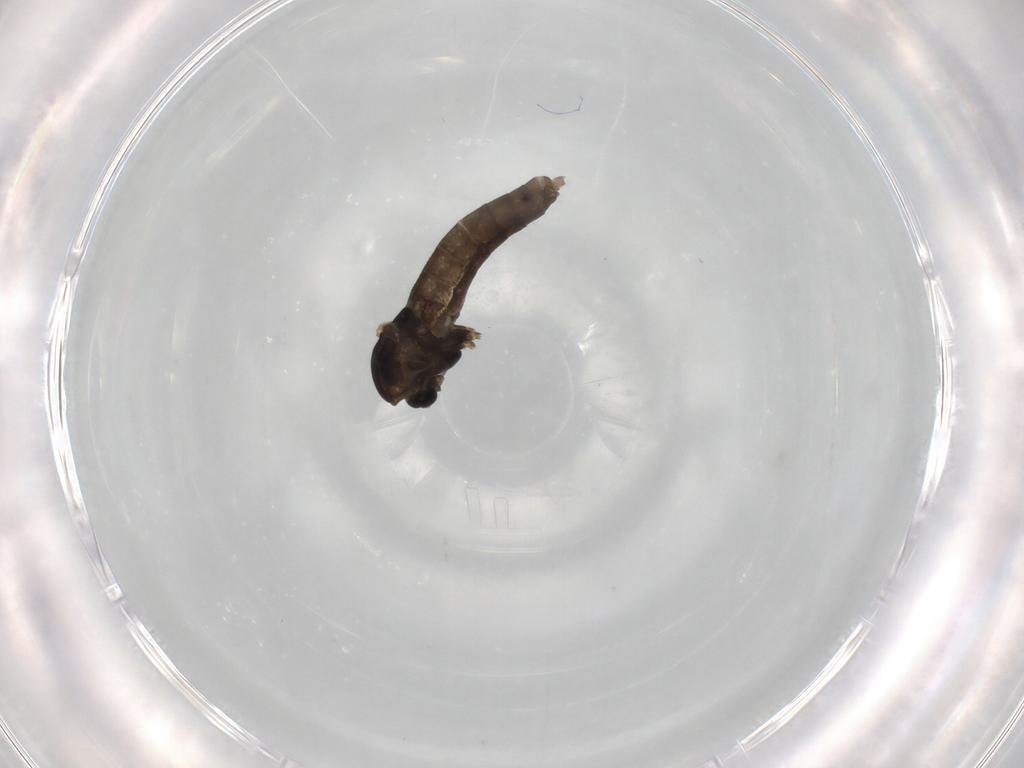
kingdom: Animalia
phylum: Arthropoda
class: Insecta
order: Diptera
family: Chironomidae
